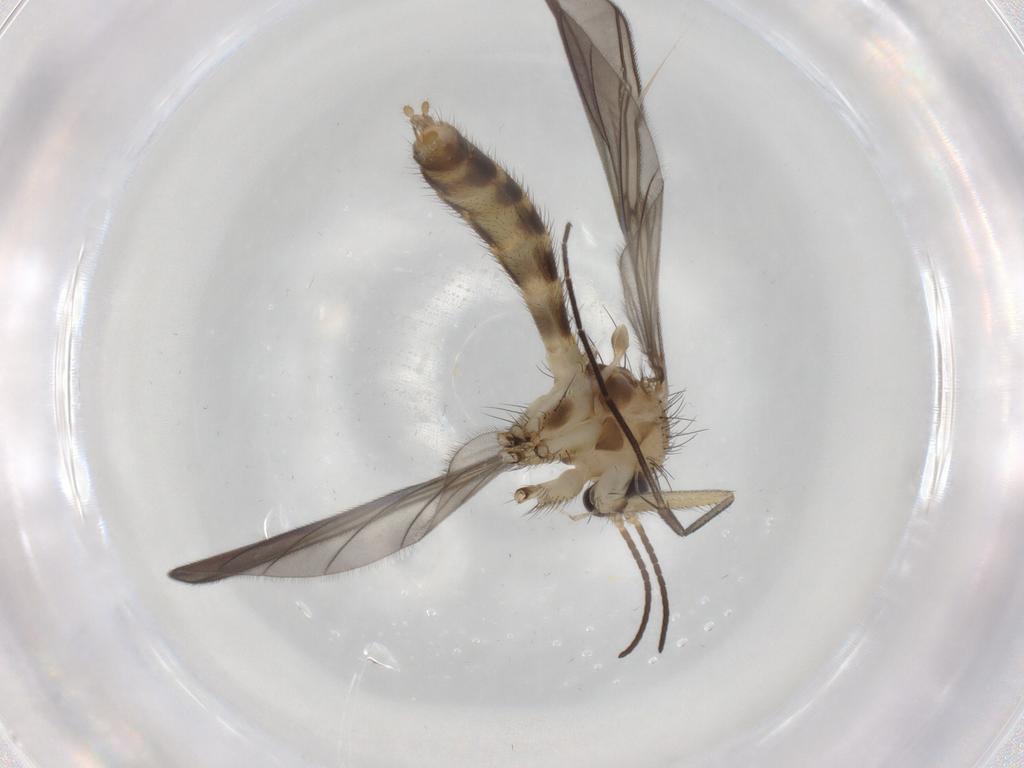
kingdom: Animalia
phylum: Arthropoda
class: Insecta
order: Diptera
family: Mycetophilidae
